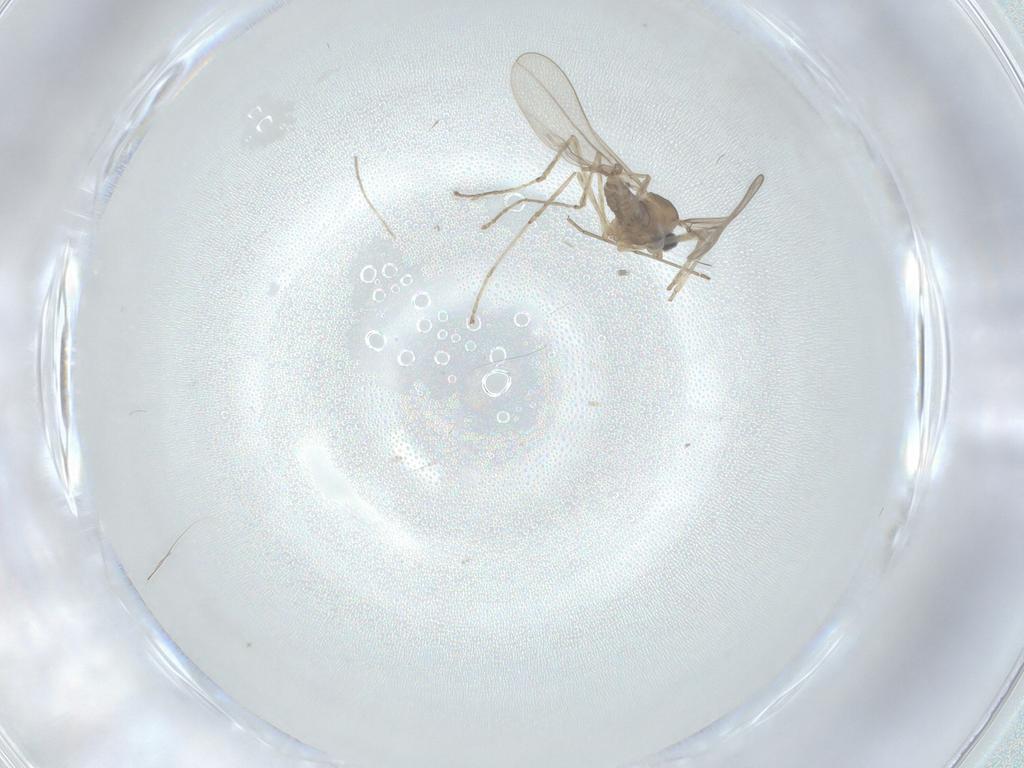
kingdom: Animalia
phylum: Arthropoda
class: Insecta
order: Diptera
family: Cecidomyiidae
